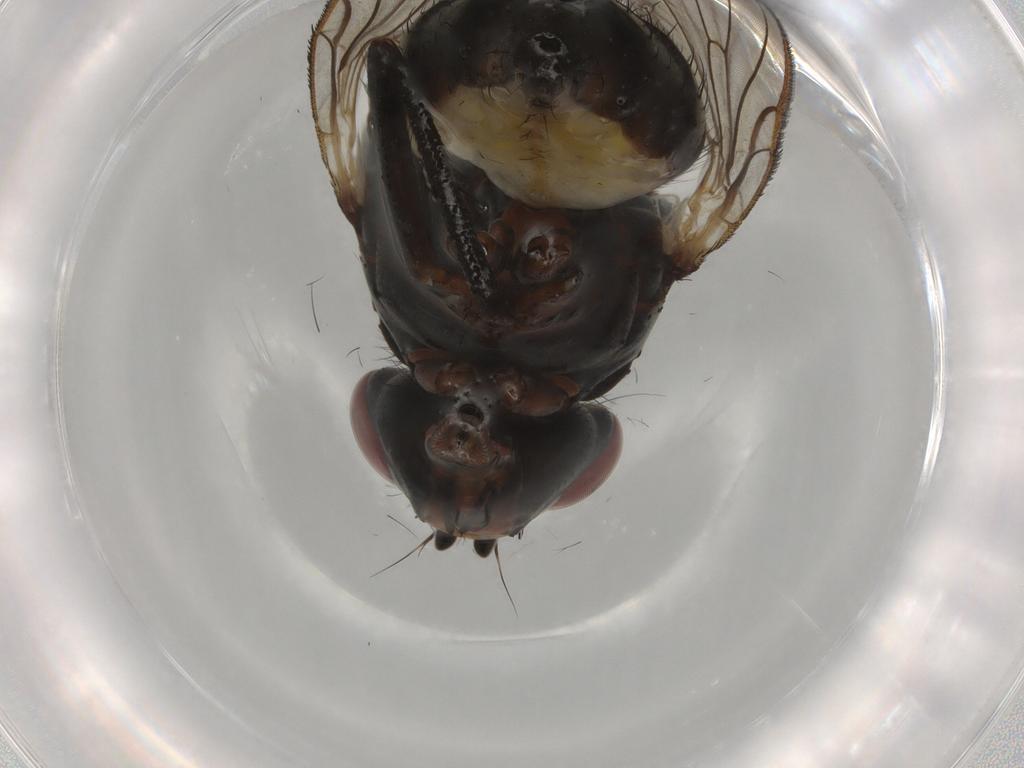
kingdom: Animalia
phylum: Arthropoda
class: Insecta
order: Diptera
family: Anthomyiidae
